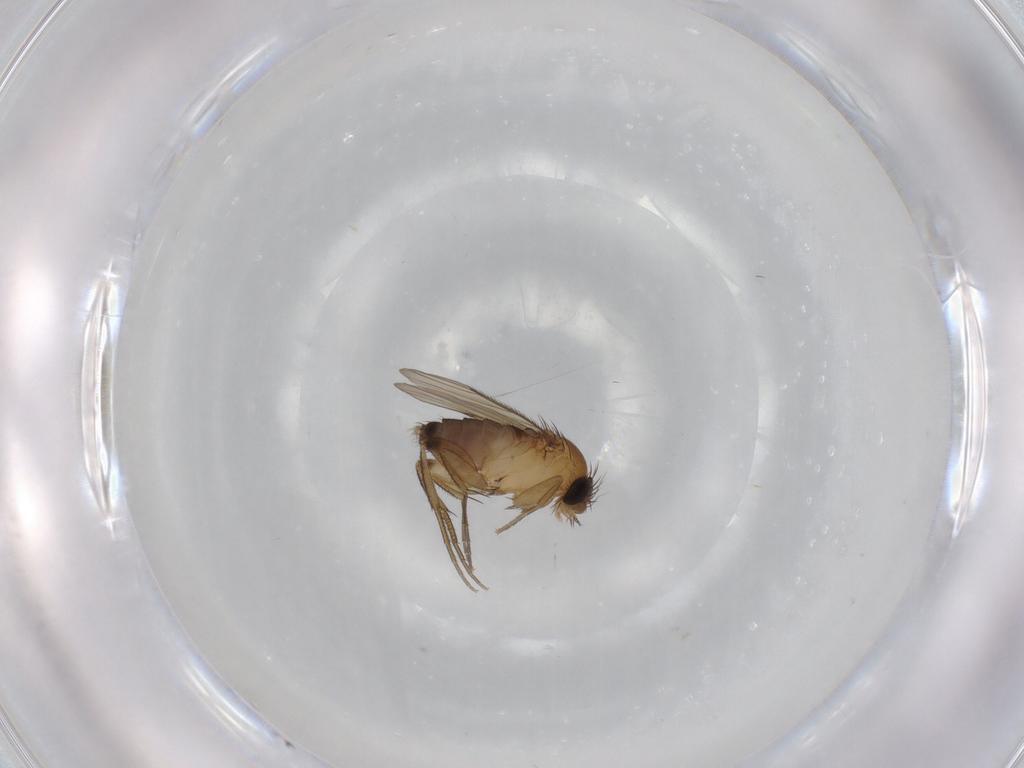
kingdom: Animalia
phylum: Arthropoda
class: Insecta
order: Diptera
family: Phoridae
